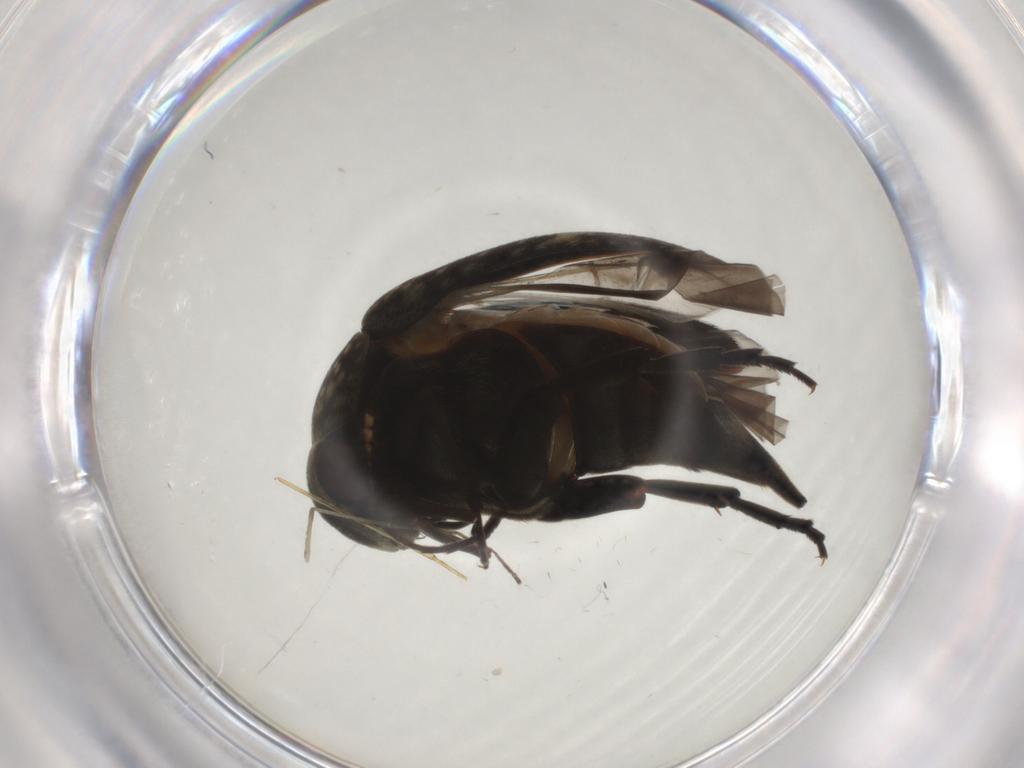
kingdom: Animalia
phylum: Arthropoda
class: Insecta
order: Coleoptera
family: Mordellidae
